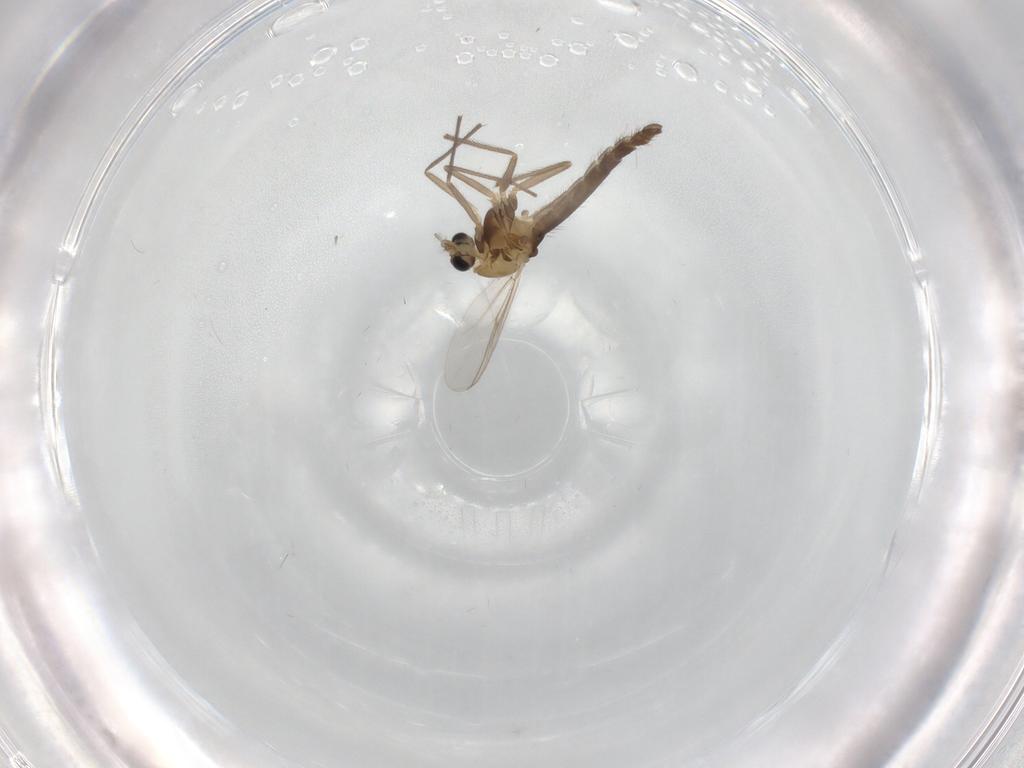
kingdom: Animalia
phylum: Arthropoda
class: Insecta
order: Diptera
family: Chironomidae
